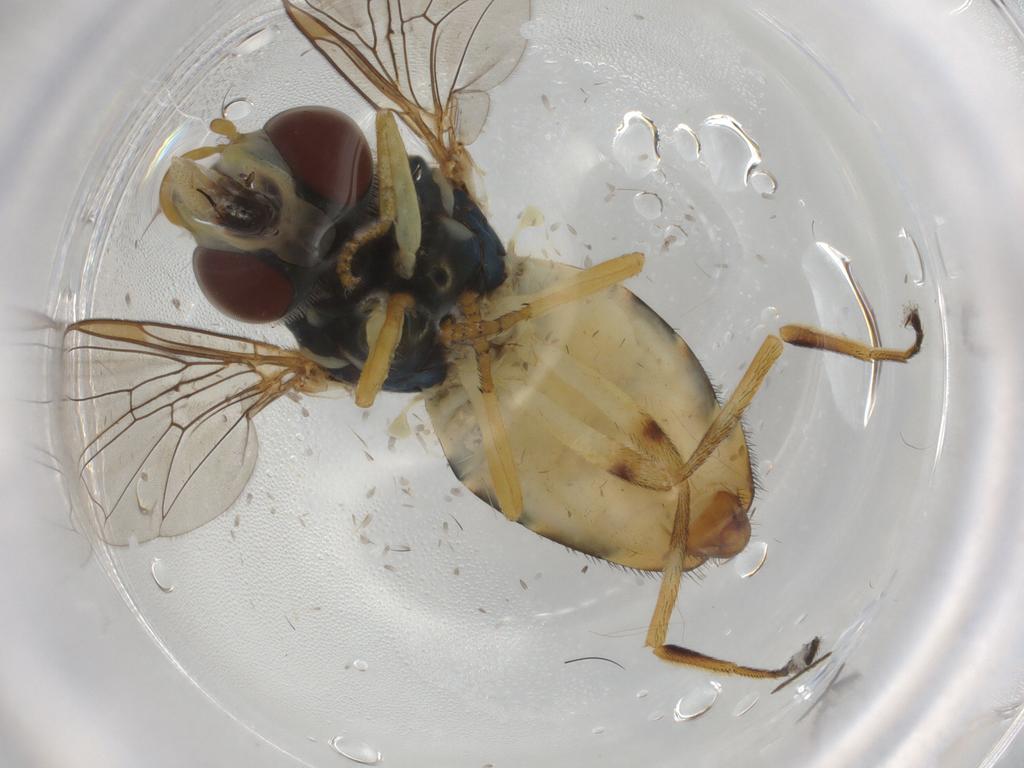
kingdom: Animalia
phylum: Arthropoda
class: Insecta
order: Diptera
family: Syrphidae
